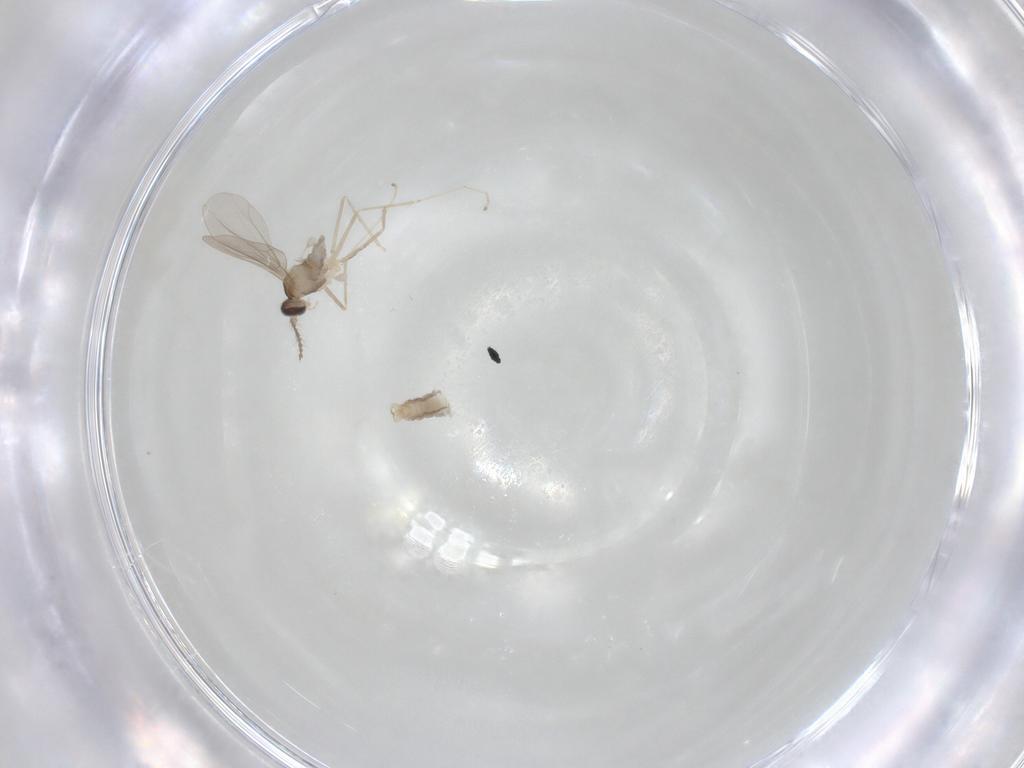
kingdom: Animalia
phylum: Arthropoda
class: Insecta
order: Diptera
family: Cecidomyiidae
